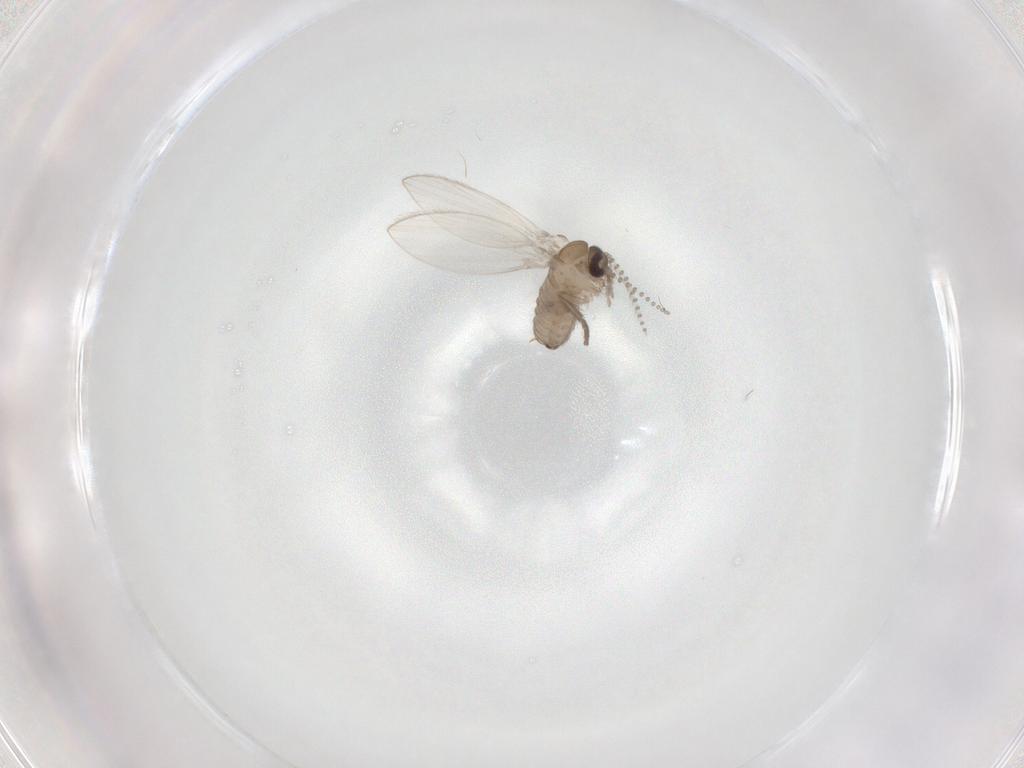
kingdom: Animalia
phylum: Arthropoda
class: Insecta
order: Diptera
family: Psychodidae
